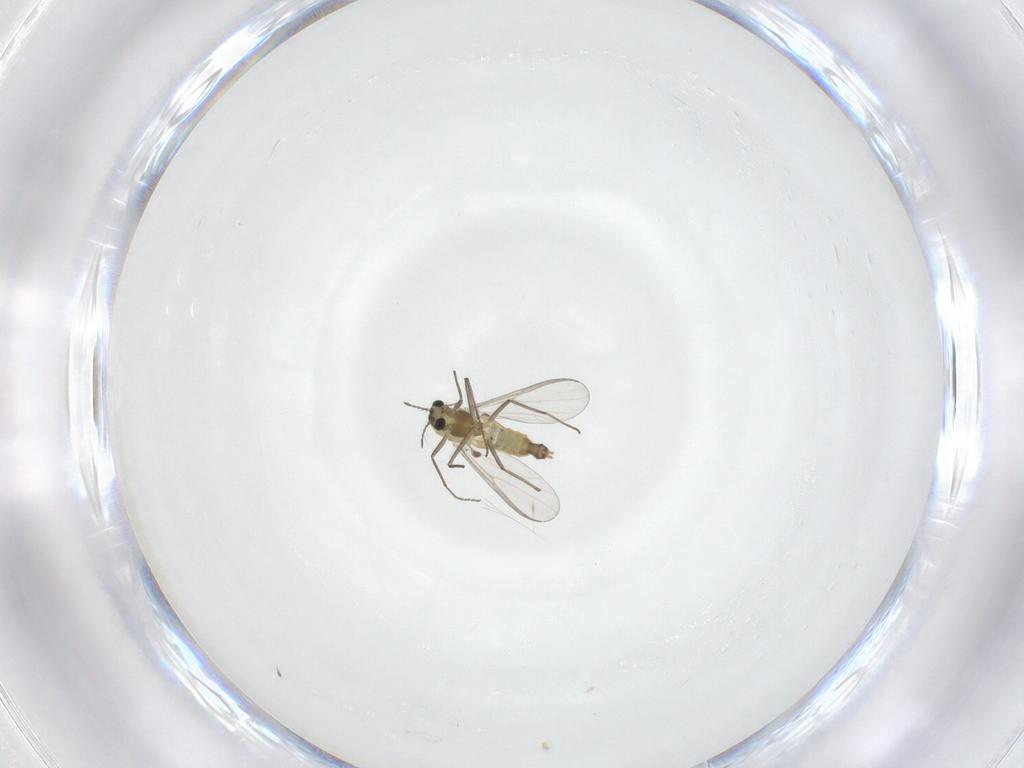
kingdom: Animalia
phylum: Arthropoda
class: Insecta
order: Diptera
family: Chironomidae
